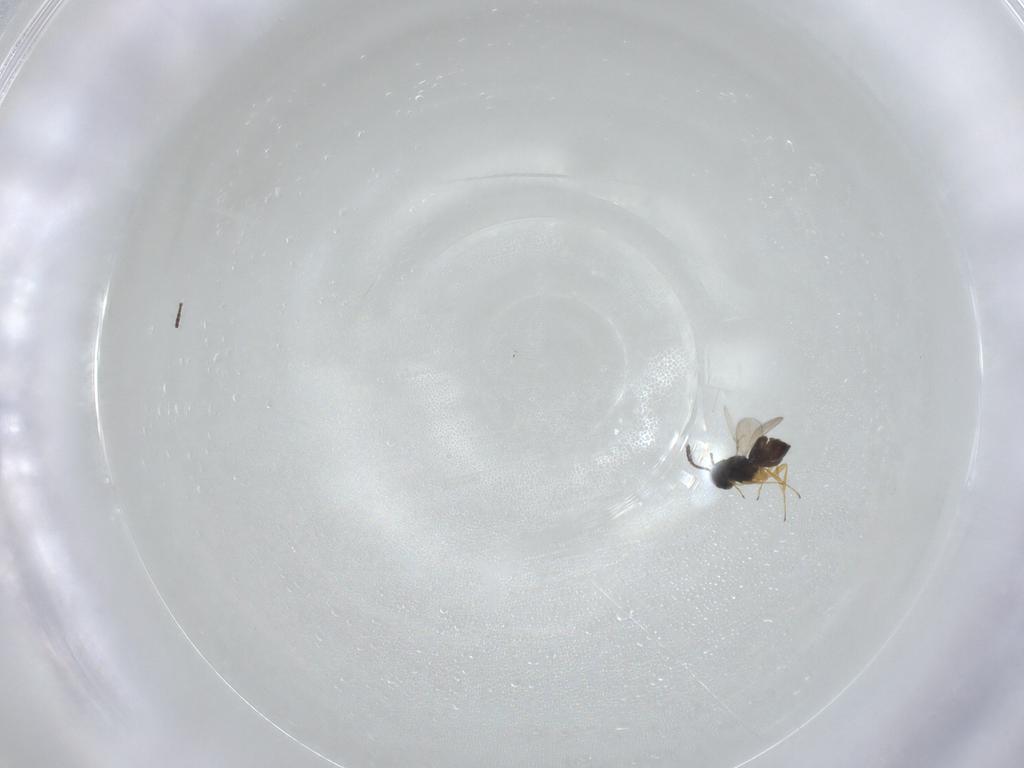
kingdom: Animalia
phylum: Arthropoda
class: Insecta
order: Hymenoptera
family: Scelionidae
